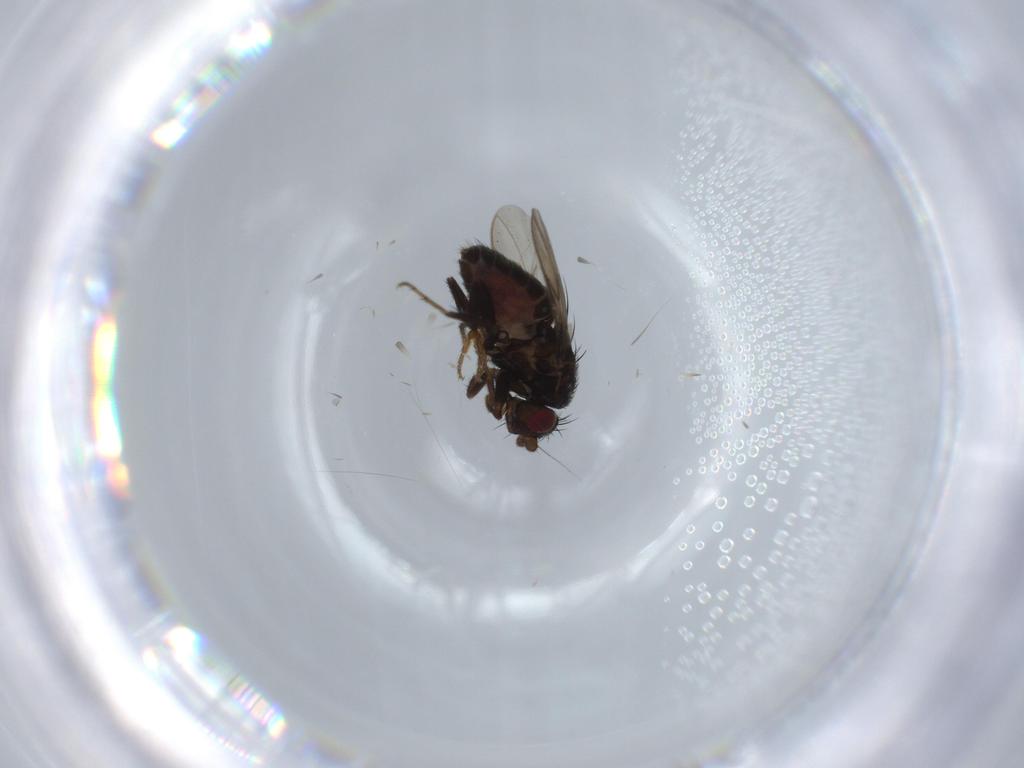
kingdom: Animalia
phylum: Arthropoda
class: Insecta
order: Diptera
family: Sphaeroceridae
